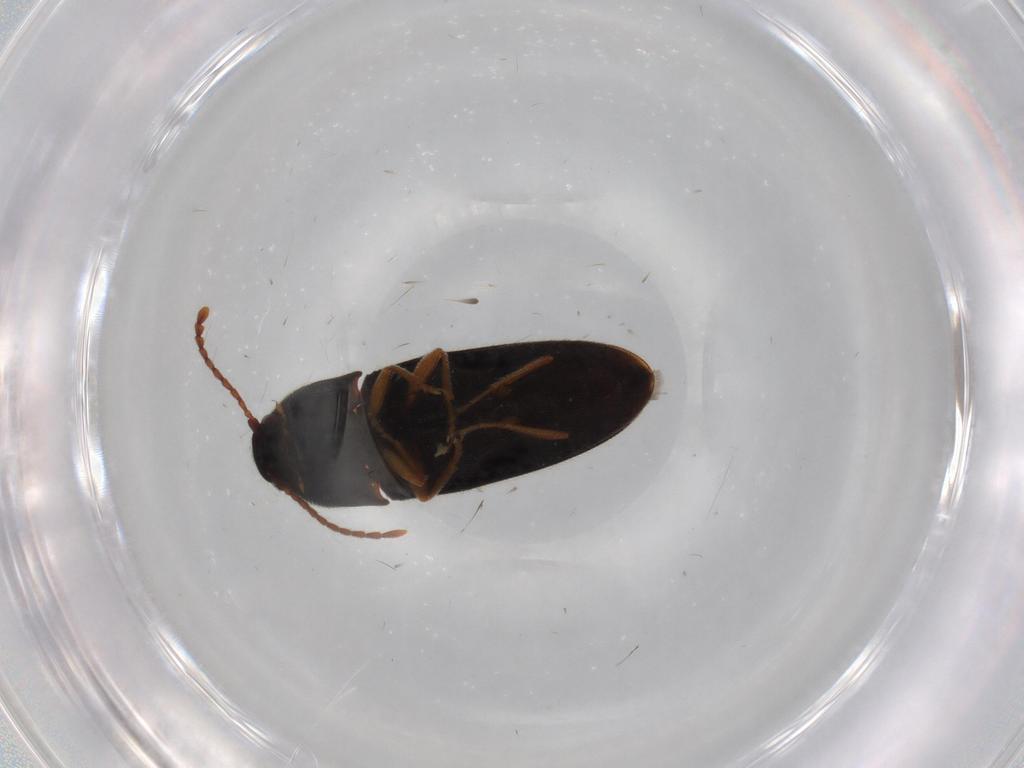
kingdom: Animalia
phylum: Arthropoda
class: Insecta
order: Coleoptera
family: Elateridae
